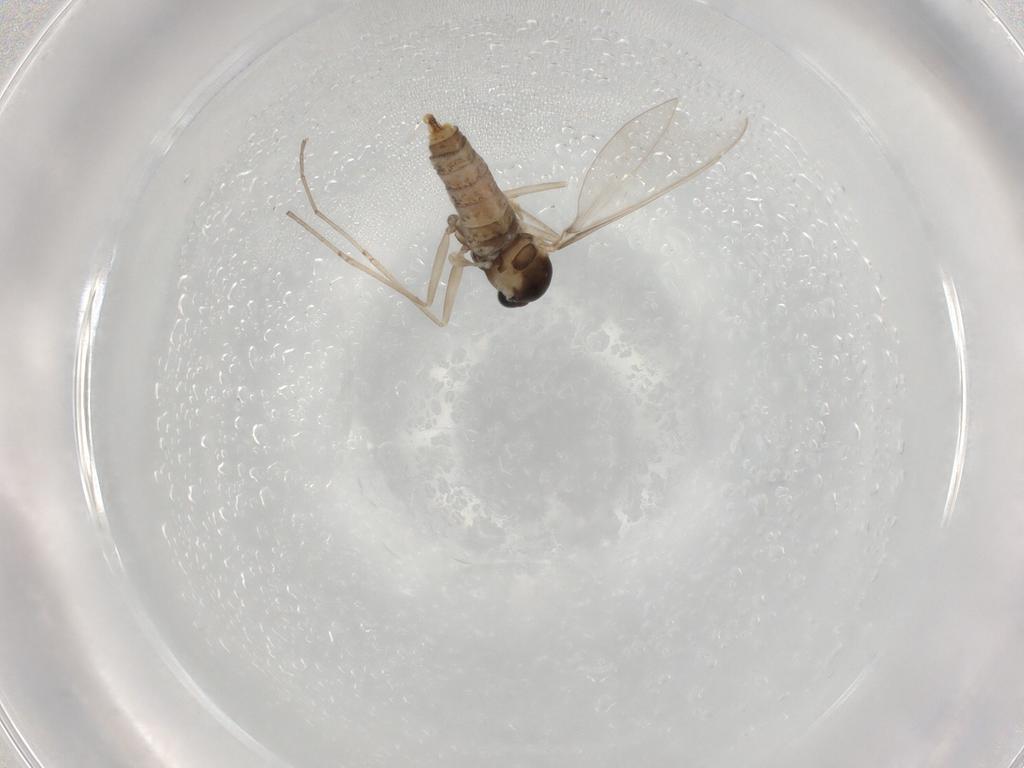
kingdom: Animalia
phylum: Arthropoda
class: Insecta
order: Diptera
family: Cecidomyiidae
